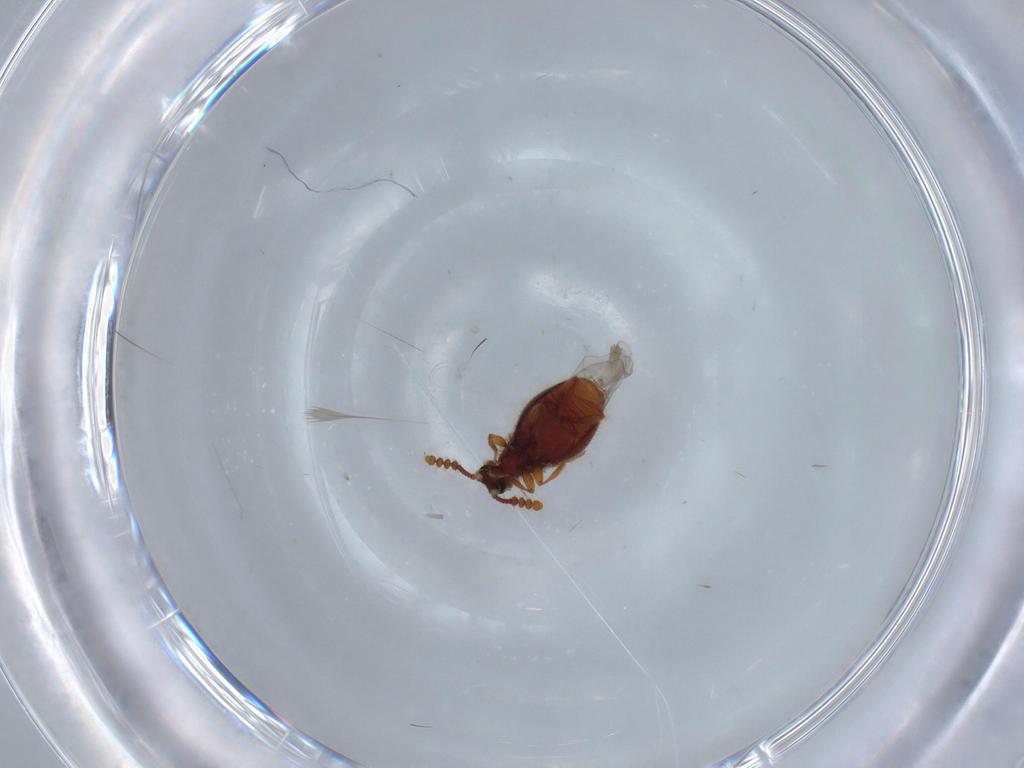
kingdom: Animalia
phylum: Arthropoda
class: Insecta
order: Coleoptera
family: Staphylinidae
